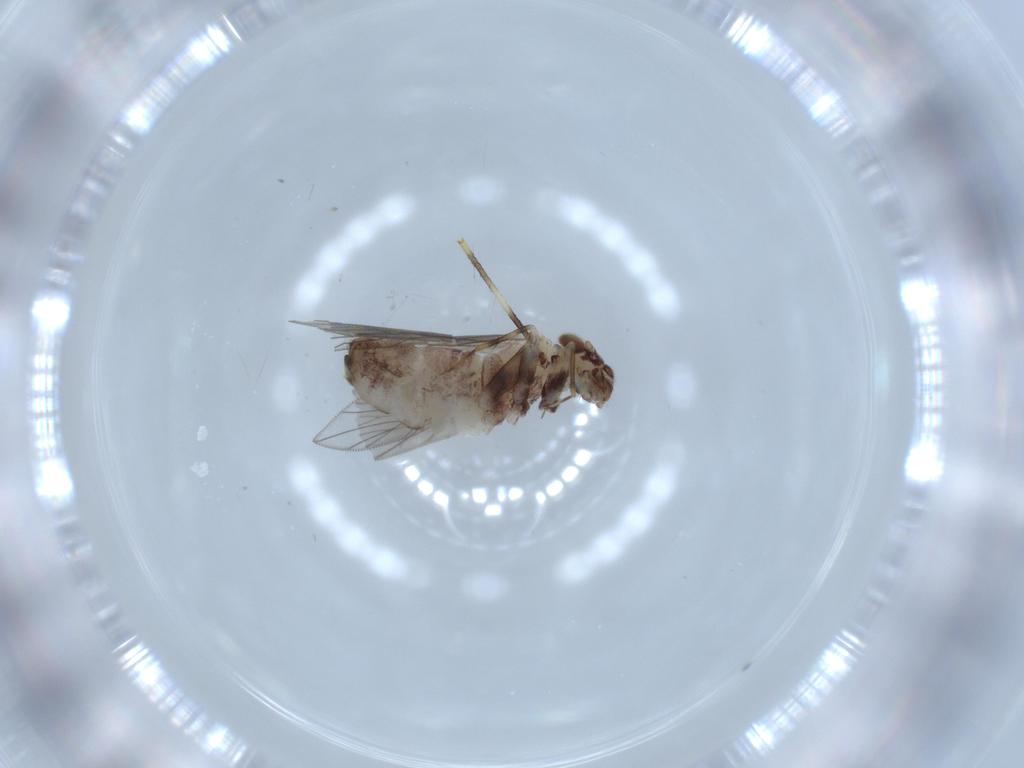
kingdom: Animalia
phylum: Arthropoda
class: Insecta
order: Psocodea
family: Lepidopsocidae
